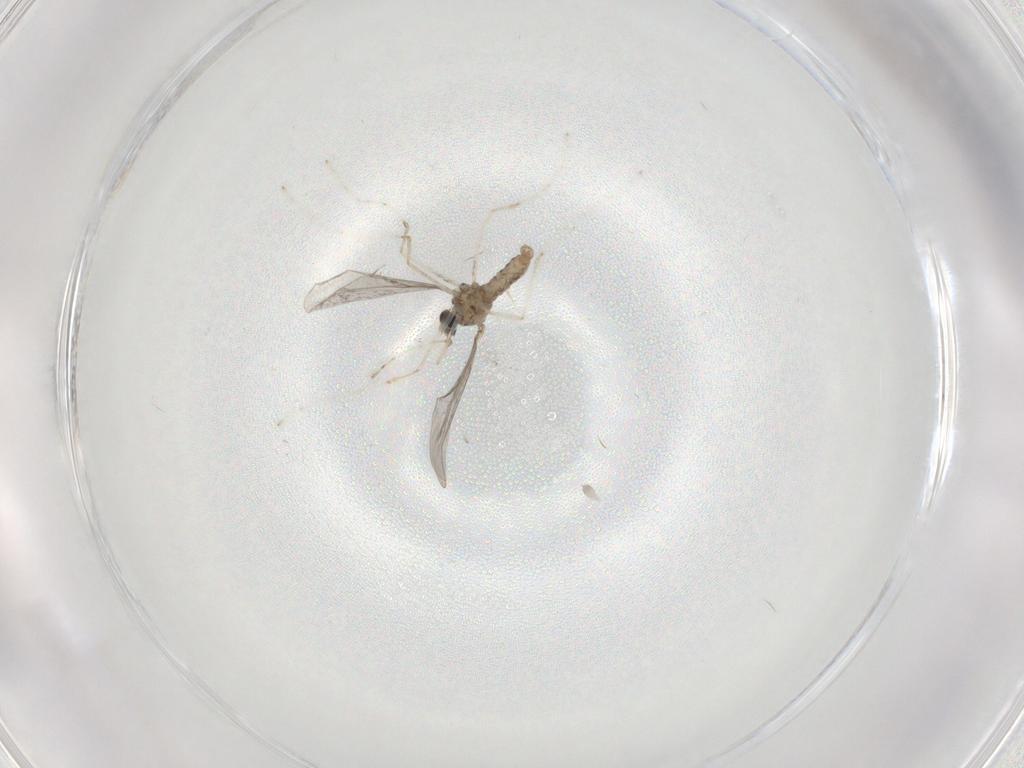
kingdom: Animalia
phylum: Arthropoda
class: Insecta
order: Diptera
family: Cecidomyiidae
